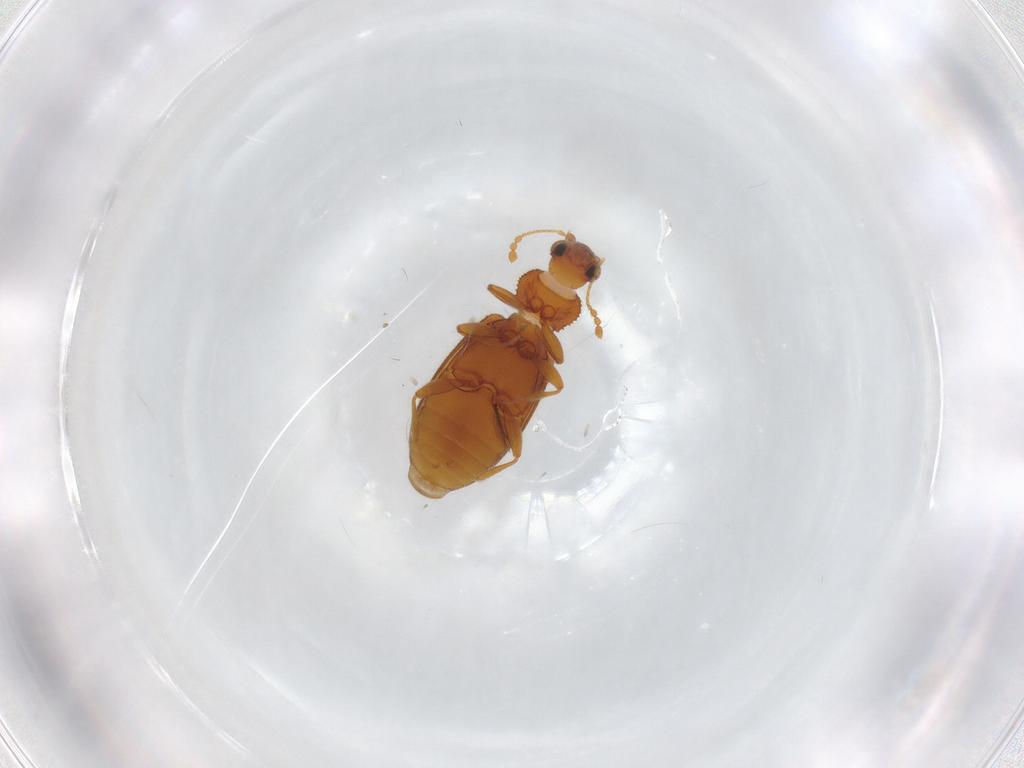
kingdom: Animalia
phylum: Arthropoda
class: Insecta
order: Coleoptera
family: Latridiidae
